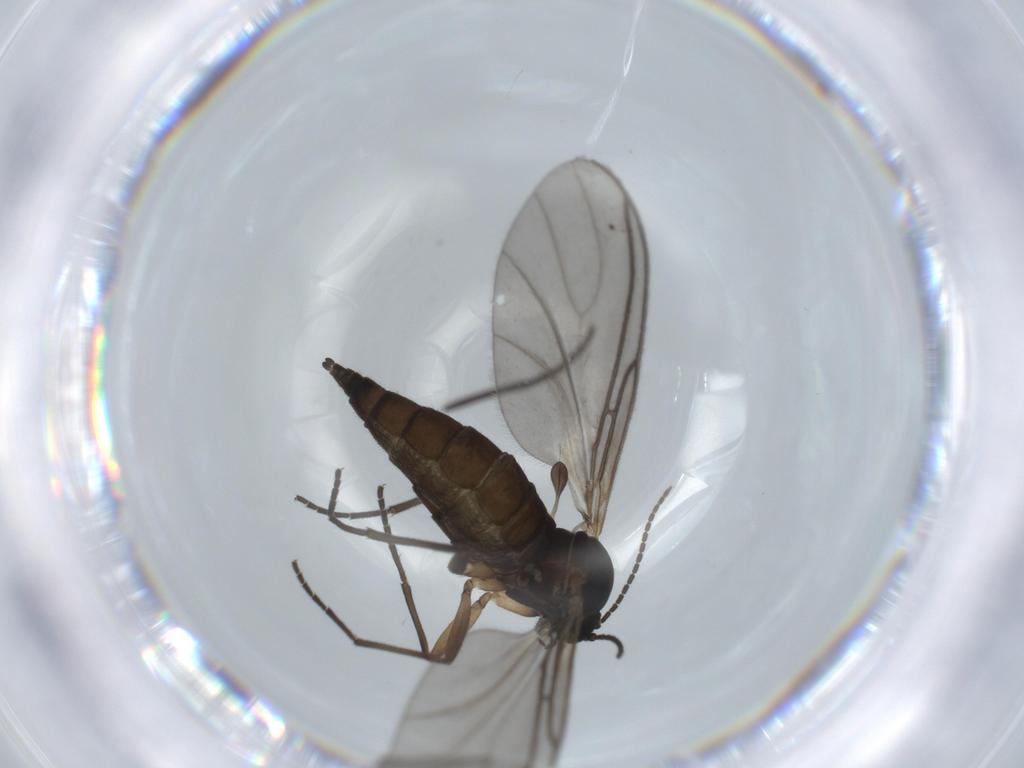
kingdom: Animalia
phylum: Arthropoda
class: Insecta
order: Diptera
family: Sciaridae
